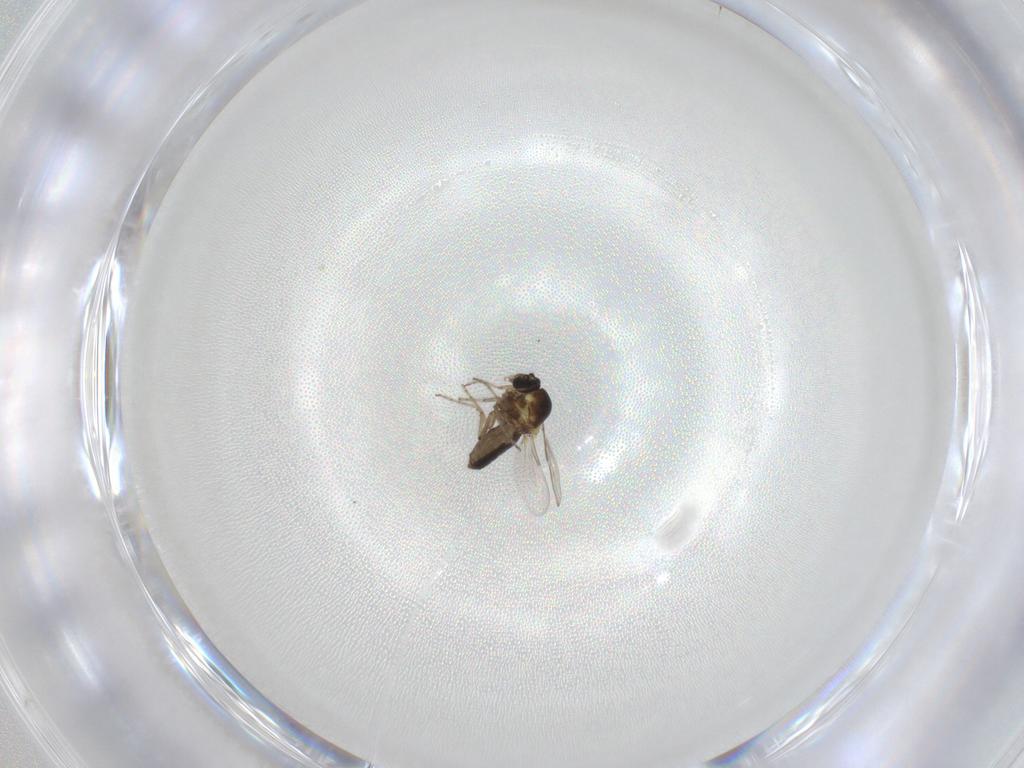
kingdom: Animalia
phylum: Arthropoda
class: Insecta
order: Diptera
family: Ceratopogonidae
